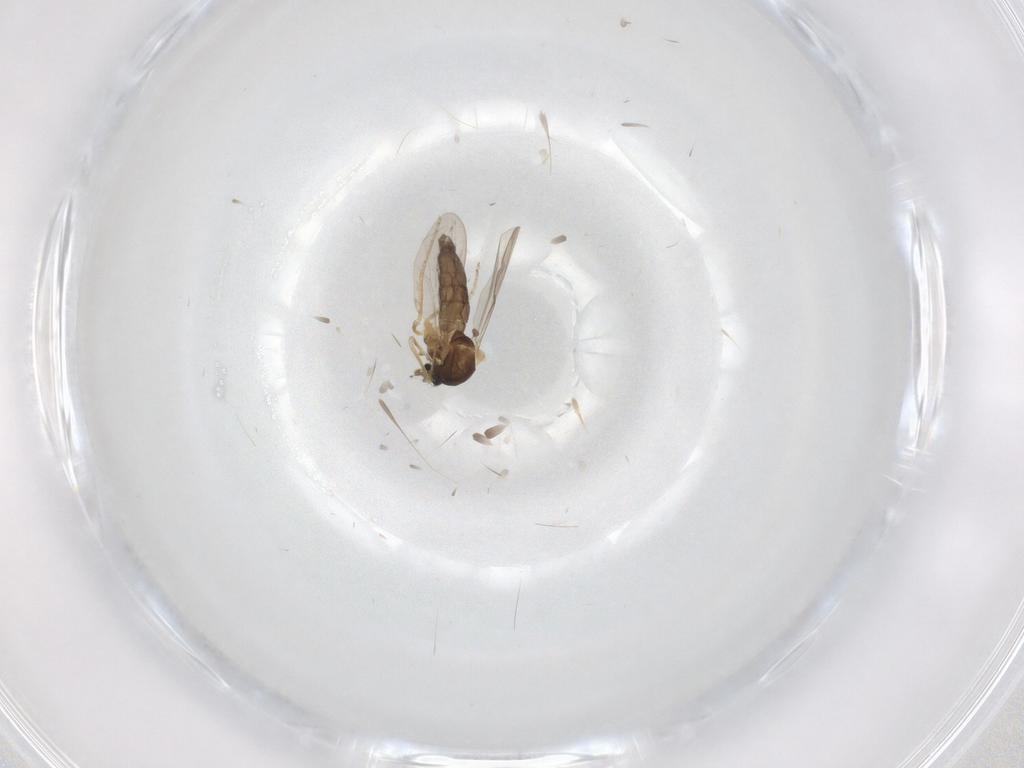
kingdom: Animalia
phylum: Arthropoda
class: Insecta
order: Diptera
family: Ceratopogonidae
